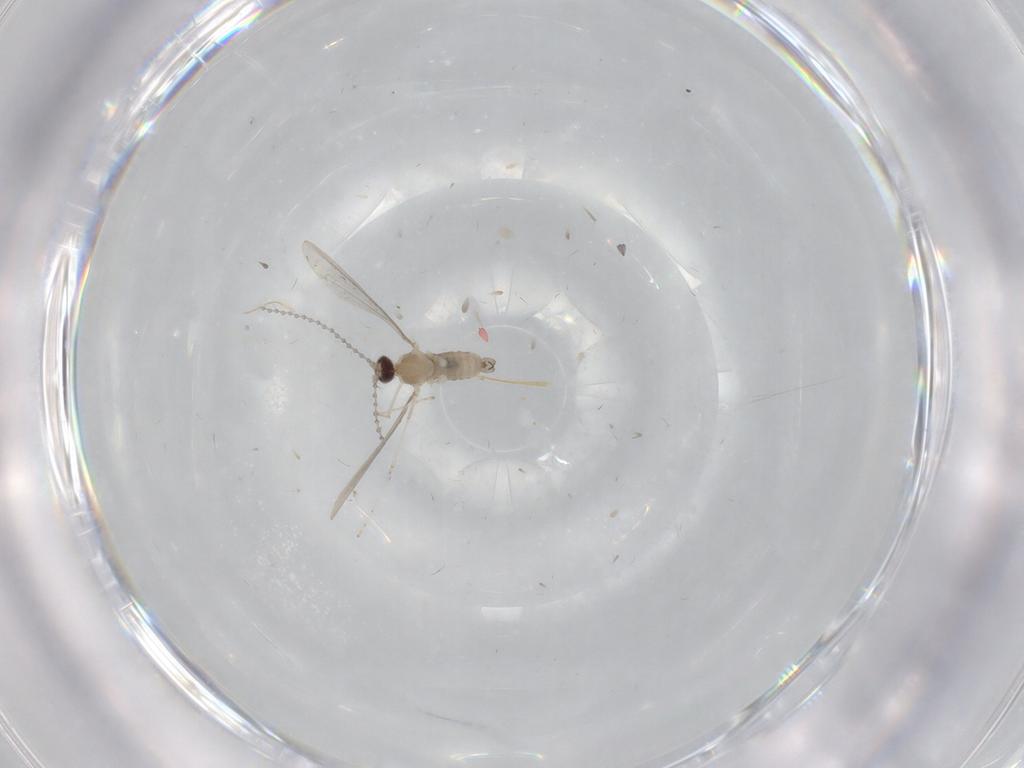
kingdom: Animalia
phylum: Arthropoda
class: Insecta
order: Diptera
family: Cecidomyiidae
